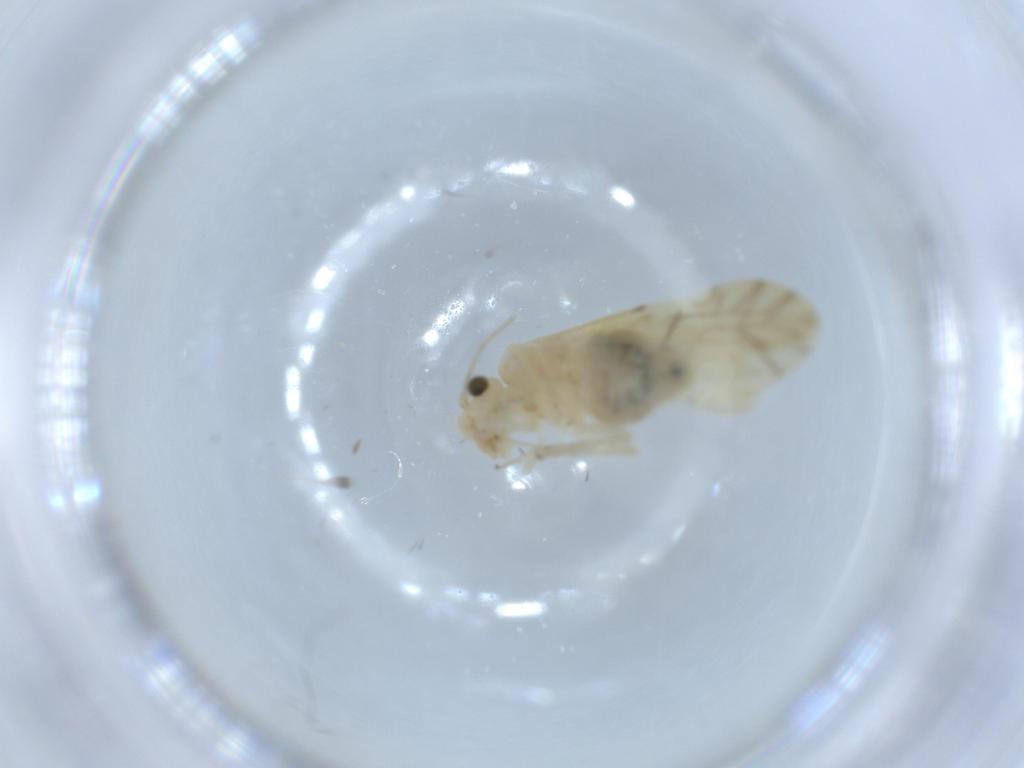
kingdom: Animalia
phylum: Arthropoda
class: Insecta
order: Psocodea
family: Caeciliusidae
